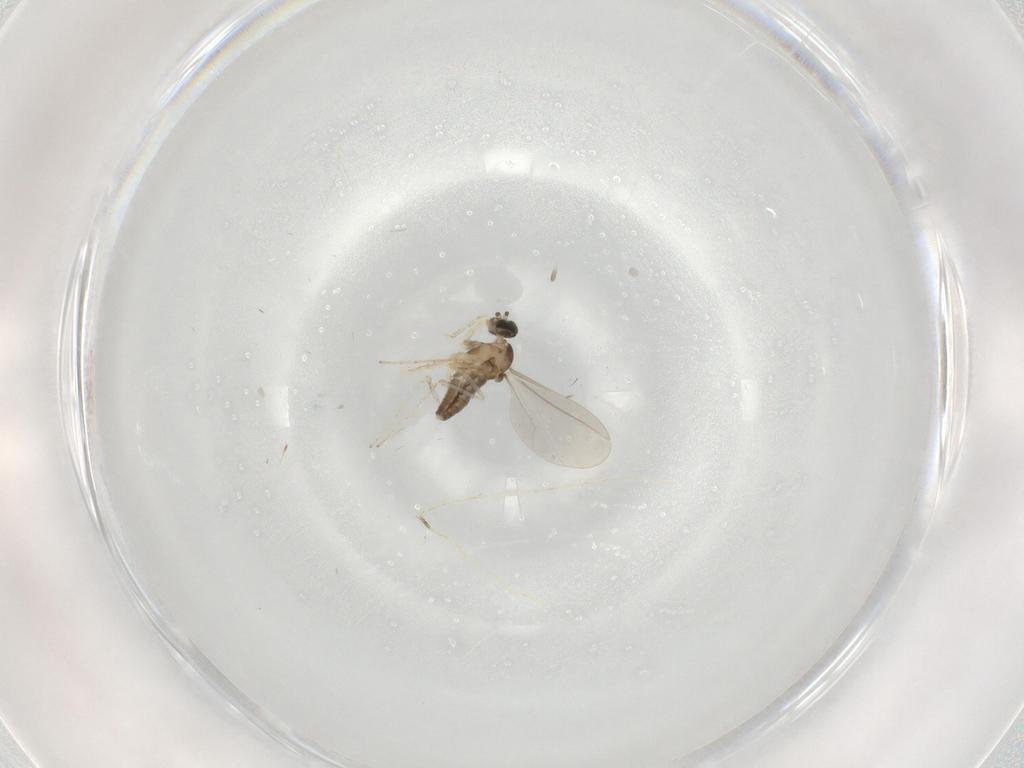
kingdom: Animalia
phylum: Arthropoda
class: Insecta
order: Diptera
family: Cecidomyiidae
